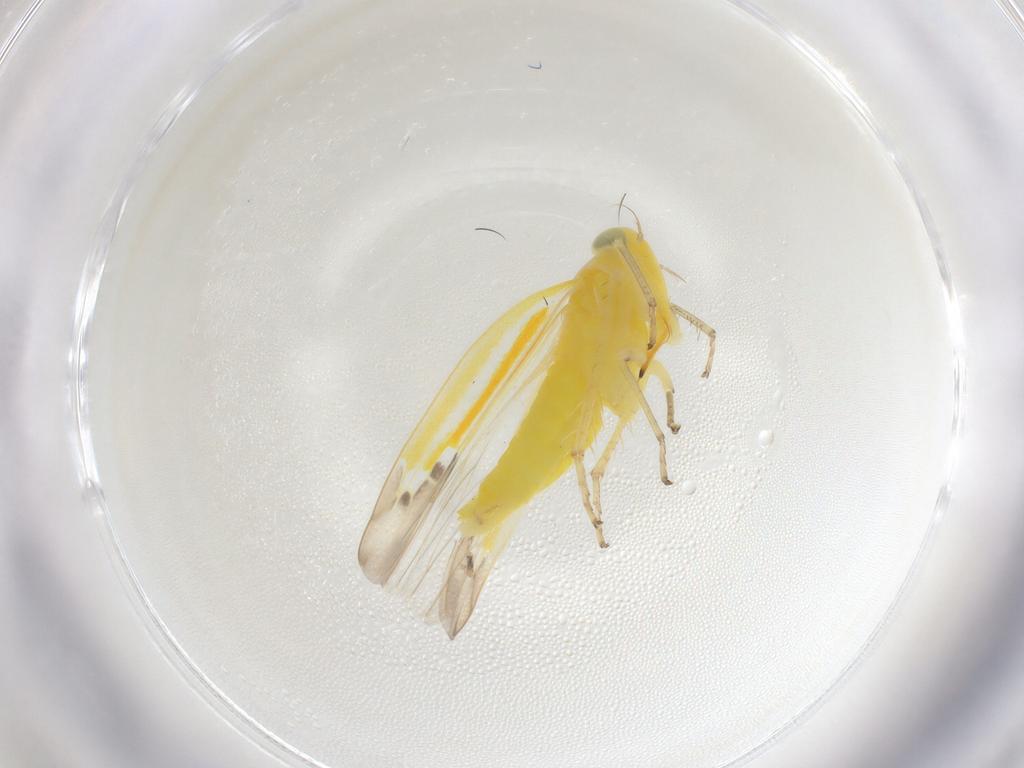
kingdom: Animalia
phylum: Arthropoda
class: Insecta
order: Hemiptera
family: Cicadellidae
